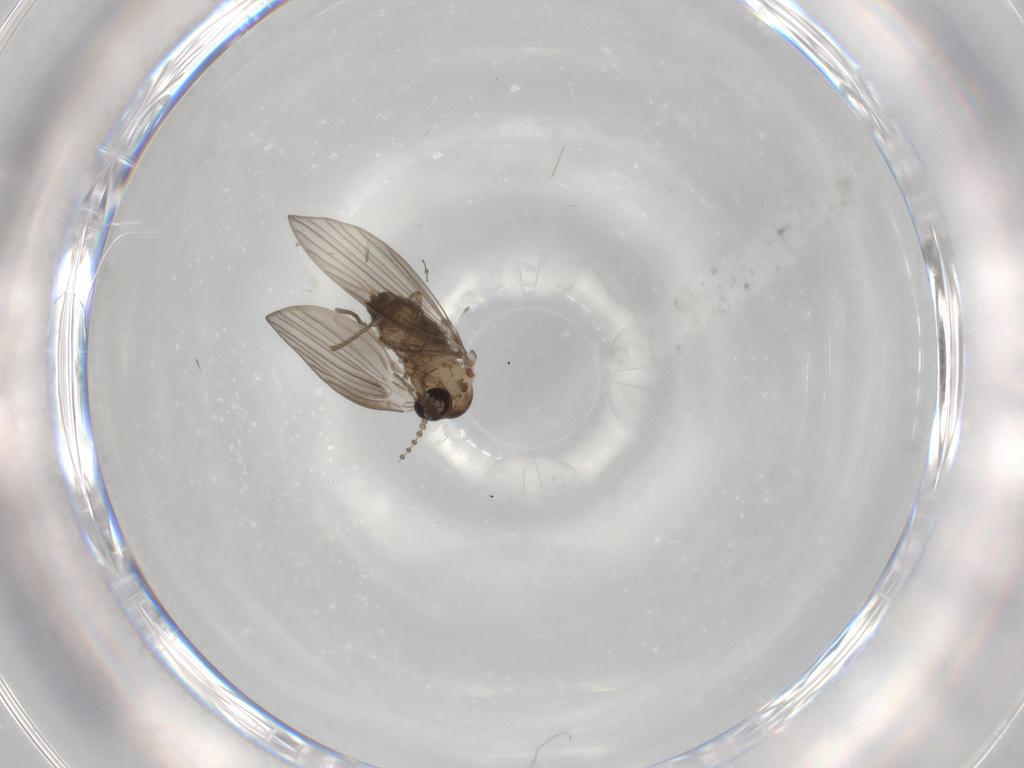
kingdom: Animalia
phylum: Arthropoda
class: Insecta
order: Diptera
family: Psychodidae
